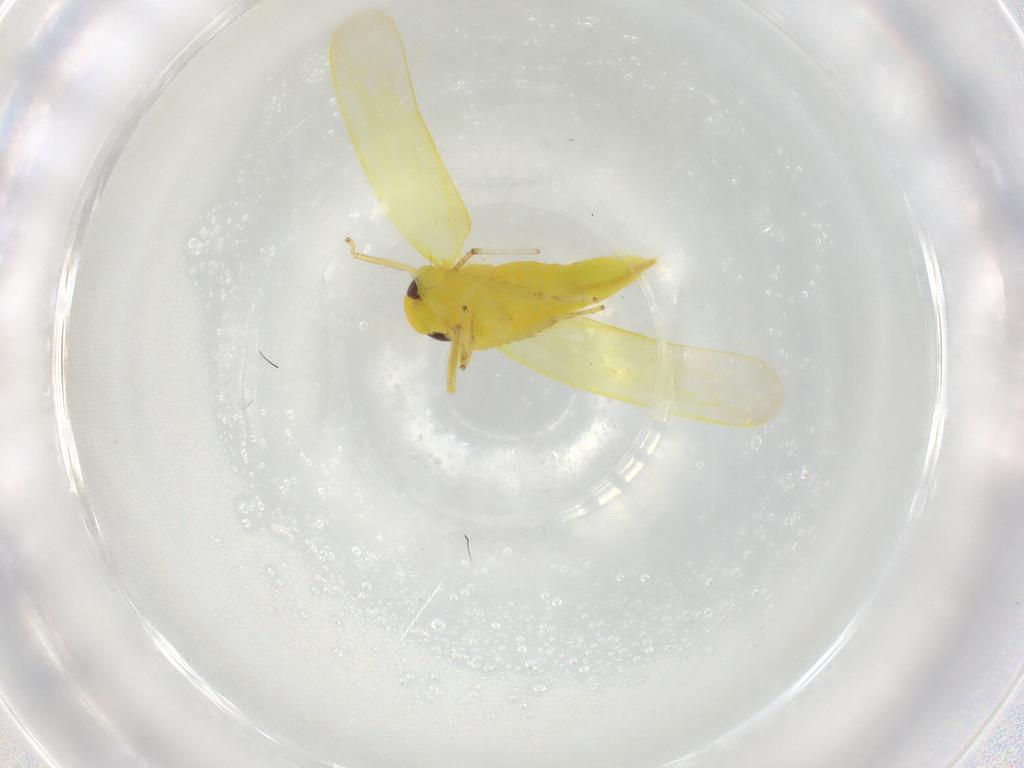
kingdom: Animalia
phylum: Arthropoda
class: Insecta
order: Hemiptera
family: Cicadellidae
